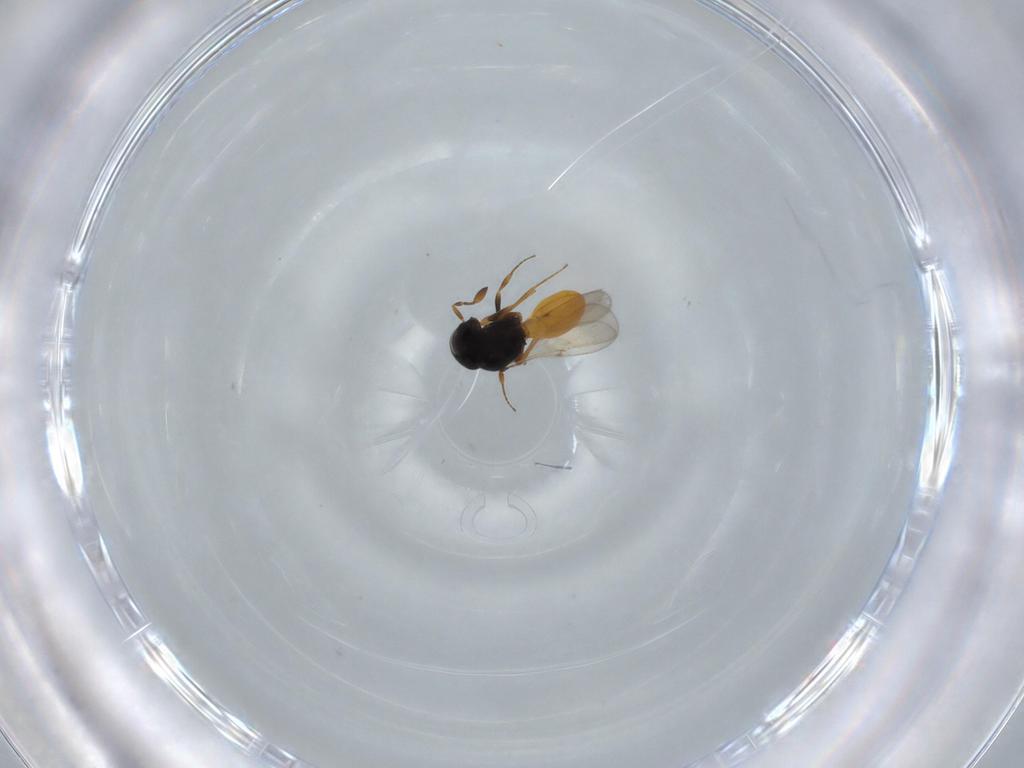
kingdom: Animalia
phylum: Arthropoda
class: Insecta
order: Hymenoptera
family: Scelionidae
